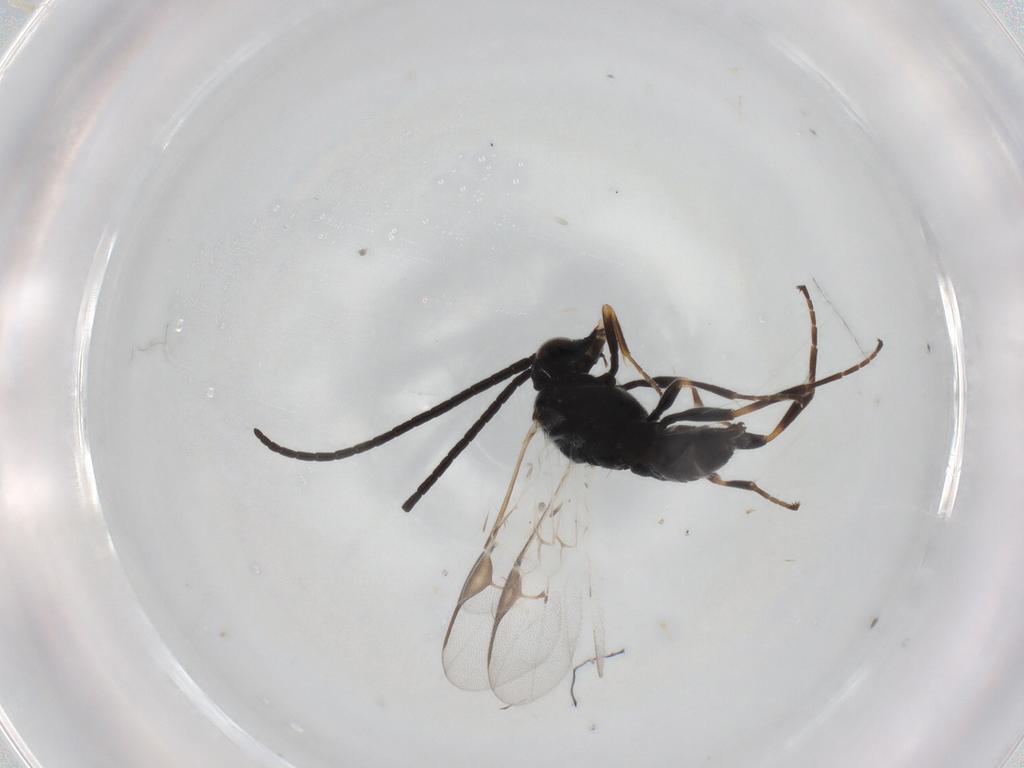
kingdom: Animalia
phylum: Arthropoda
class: Insecta
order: Hymenoptera
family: Braconidae
